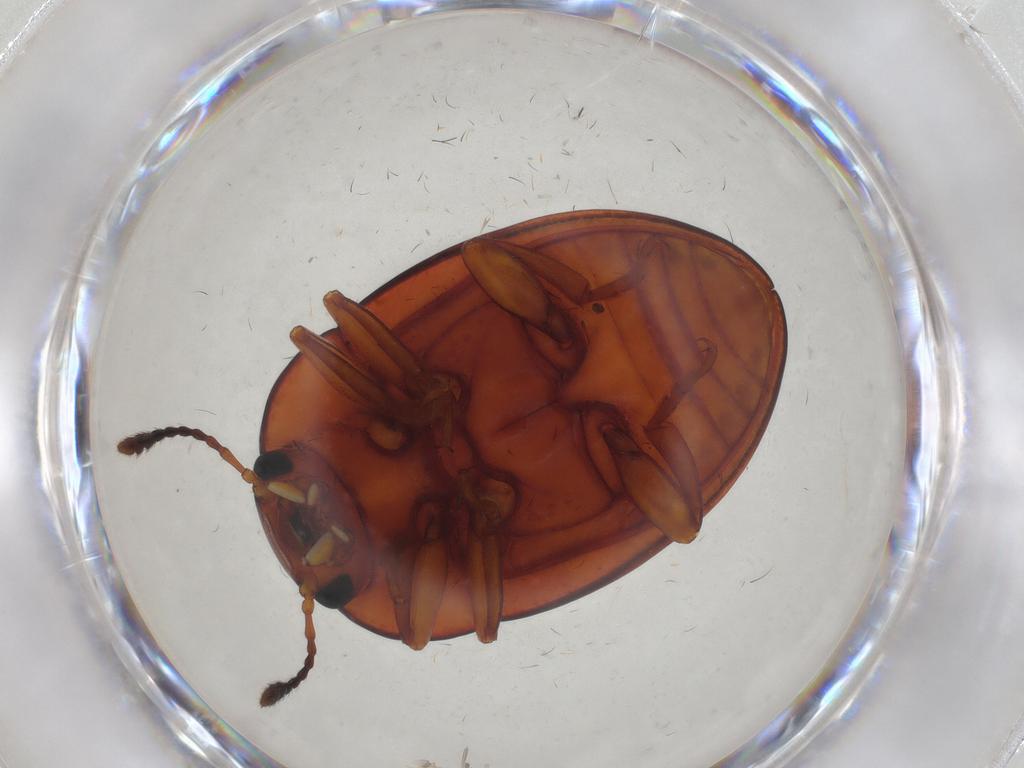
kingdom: Animalia
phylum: Arthropoda
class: Insecta
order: Coleoptera
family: Erotylidae
